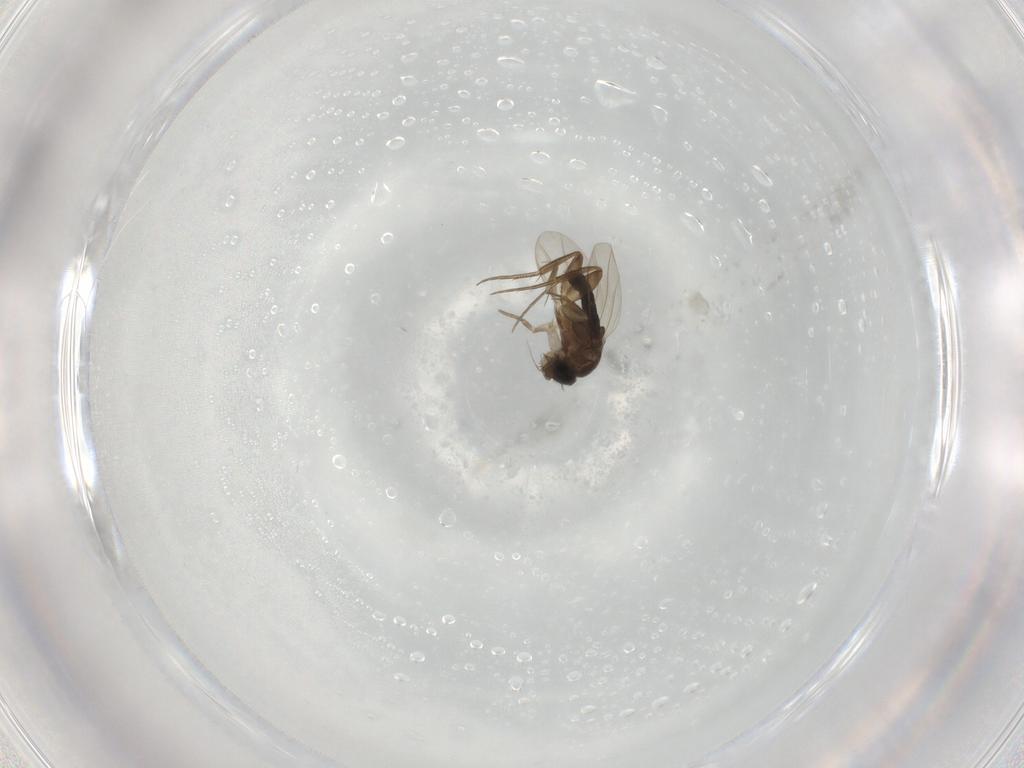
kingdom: Animalia
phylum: Arthropoda
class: Insecta
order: Diptera
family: Phoridae
